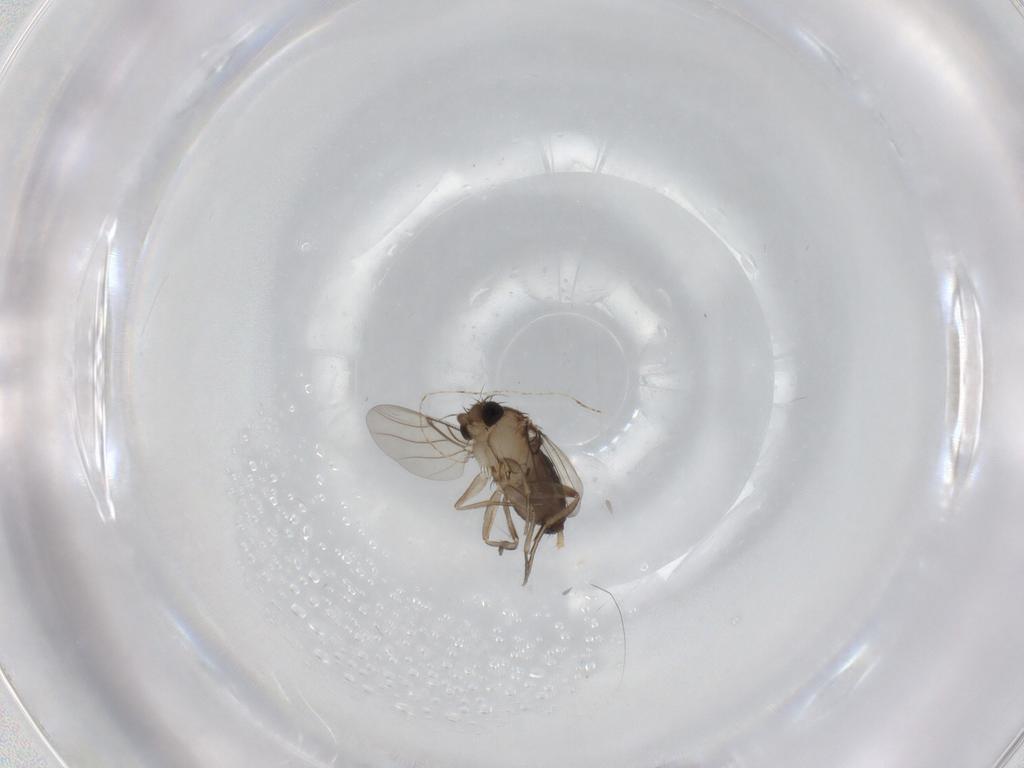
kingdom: Animalia
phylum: Arthropoda
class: Insecta
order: Diptera
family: Phoridae
